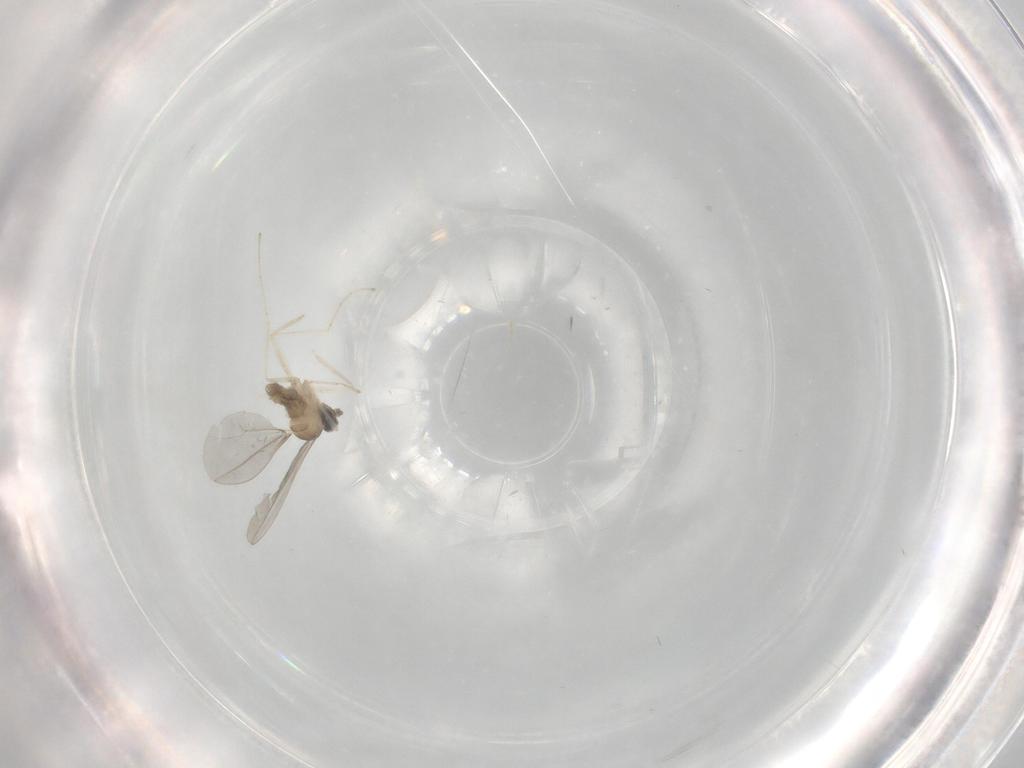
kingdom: Animalia
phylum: Arthropoda
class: Insecta
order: Diptera
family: Cecidomyiidae
